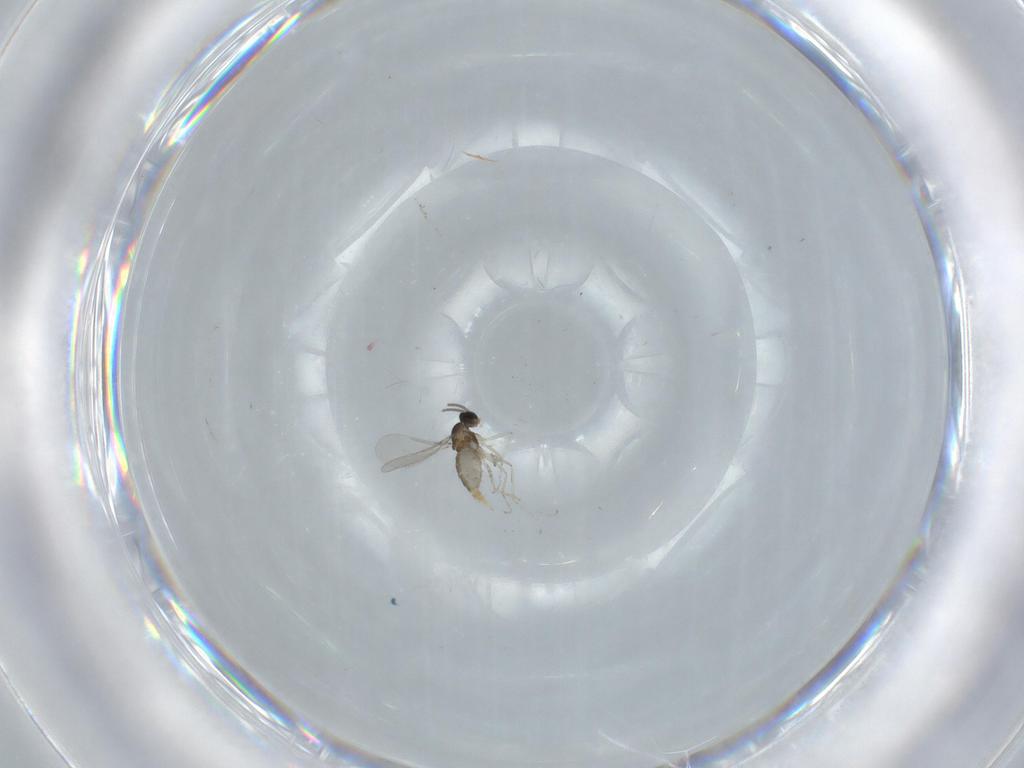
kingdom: Animalia
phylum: Arthropoda
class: Insecta
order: Diptera
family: Cecidomyiidae
